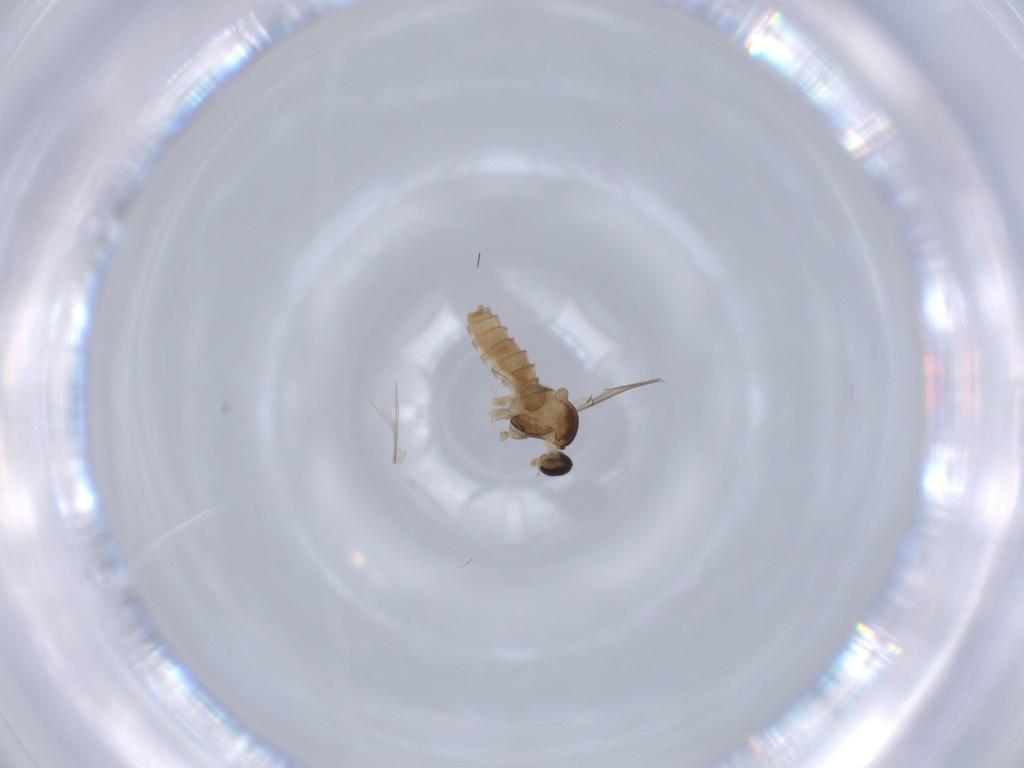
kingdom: Animalia
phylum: Arthropoda
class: Insecta
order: Diptera
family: Cecidomyiidae
